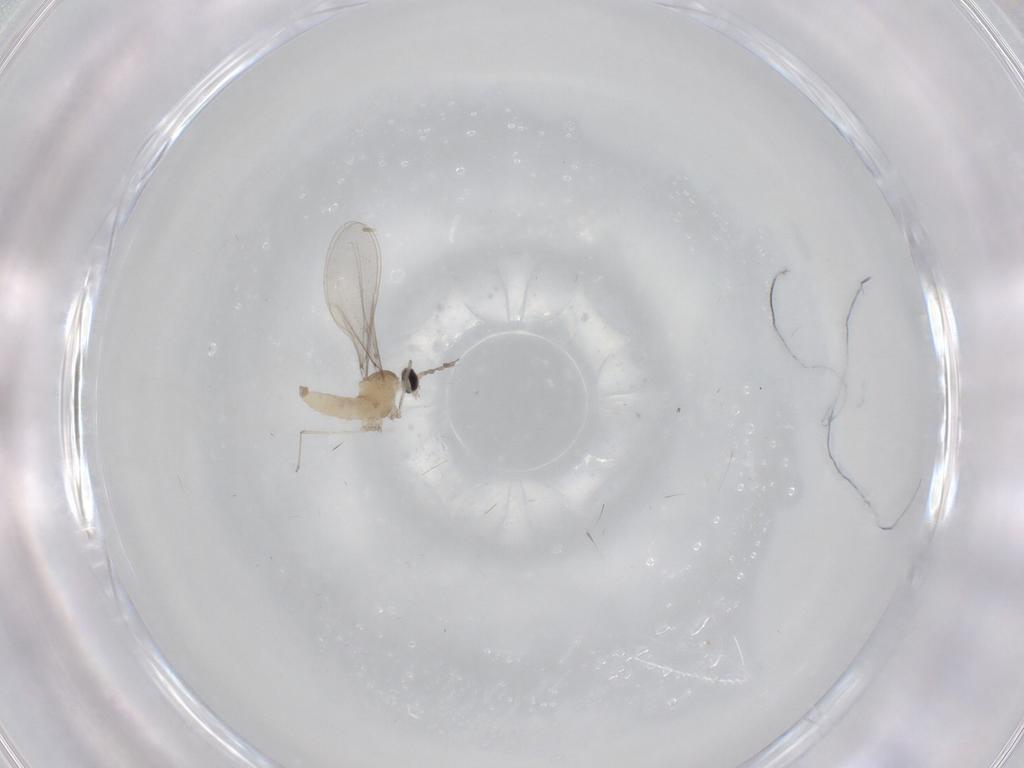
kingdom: Animalia
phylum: Arthropoda
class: Insecta
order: Diptera
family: Cecidomyiidae
